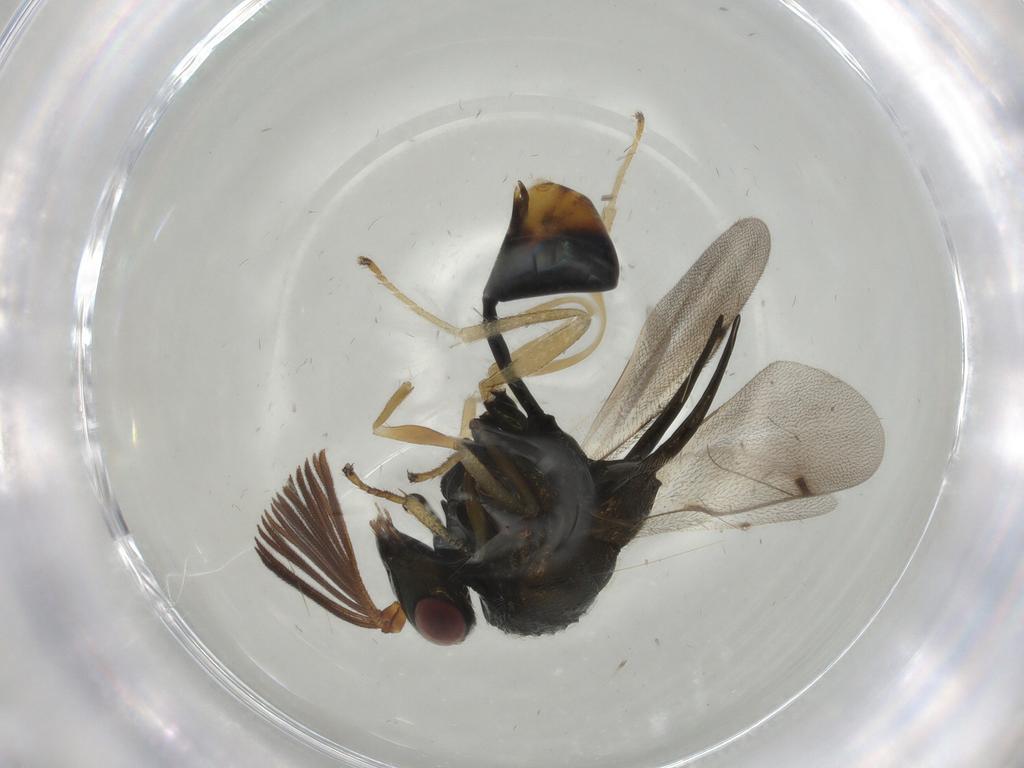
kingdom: Animalia
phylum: Arthropoda
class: Insecta
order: Hymenoptera
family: Formicidae
